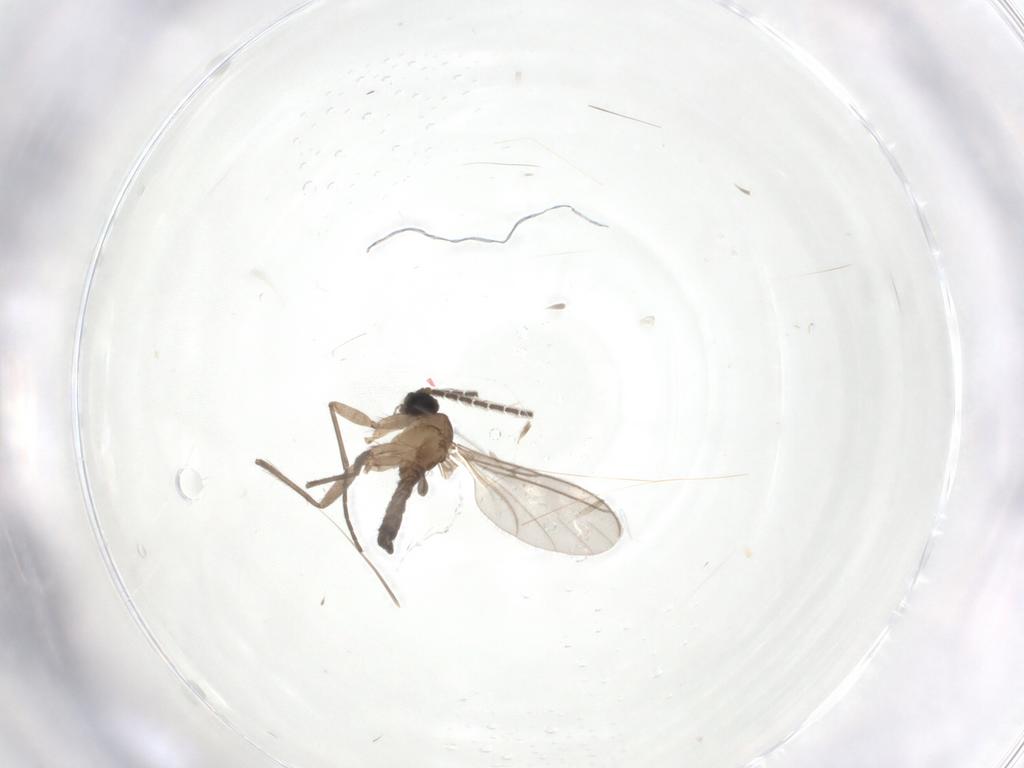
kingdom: Animalia
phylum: Arthropoda
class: Insecta
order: Diptera
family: Sciaridae
